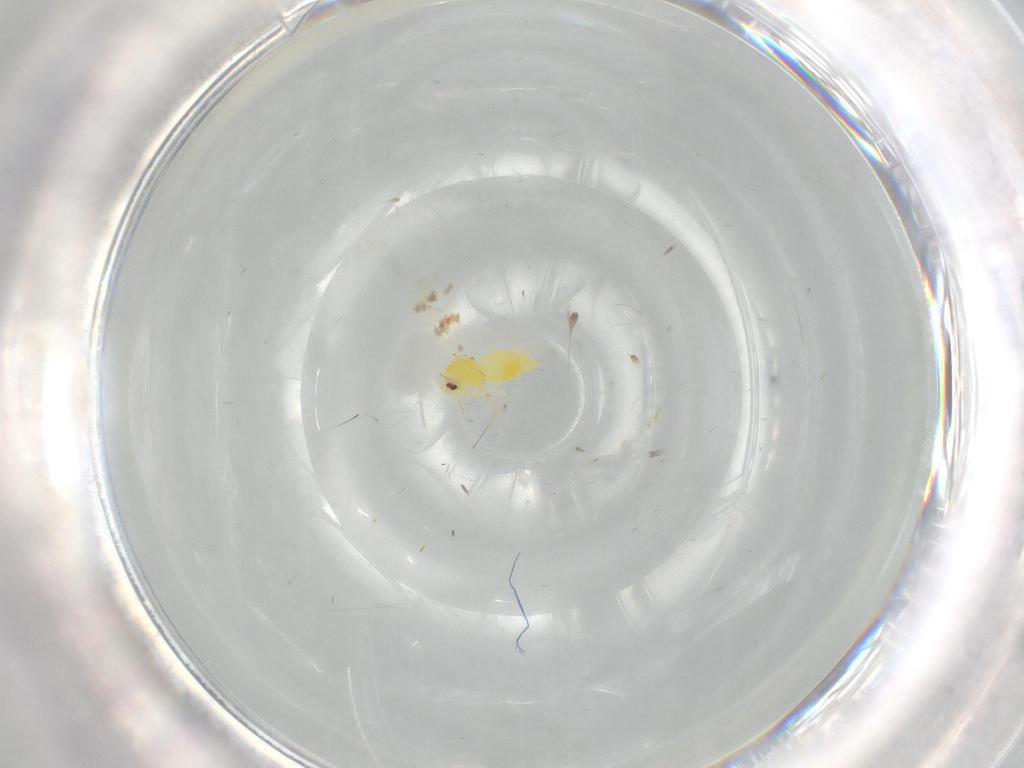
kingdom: Animalia
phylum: Arthropoda
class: Insecta
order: Hemiptera
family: Aleyrodidae
